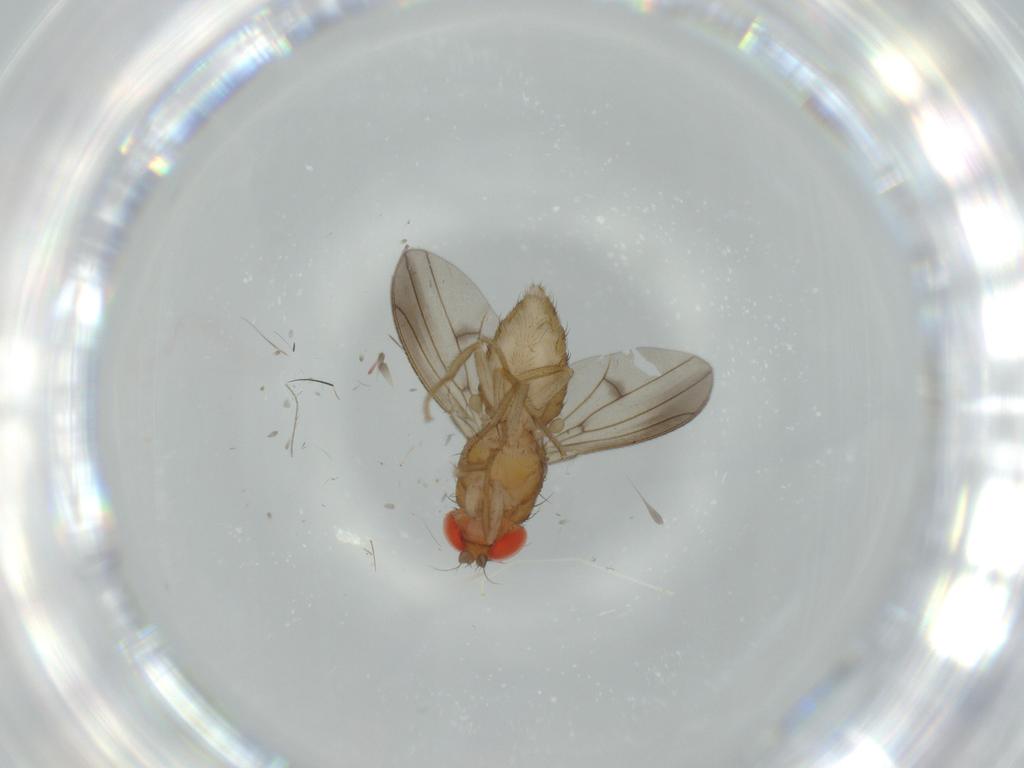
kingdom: Animalia
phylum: Arthropoda
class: Insecta
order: Diptera
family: Drosophilidae
